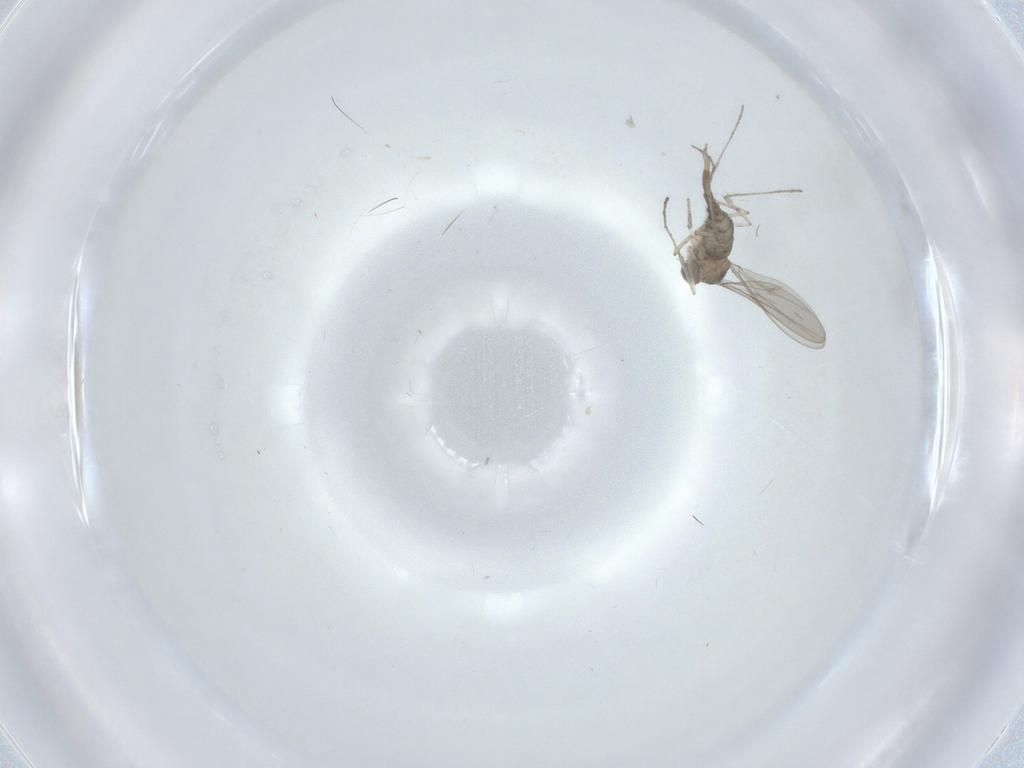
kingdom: Animalia
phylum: Arthropoda
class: Insecta
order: Diptera
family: Cecidomyiidae
